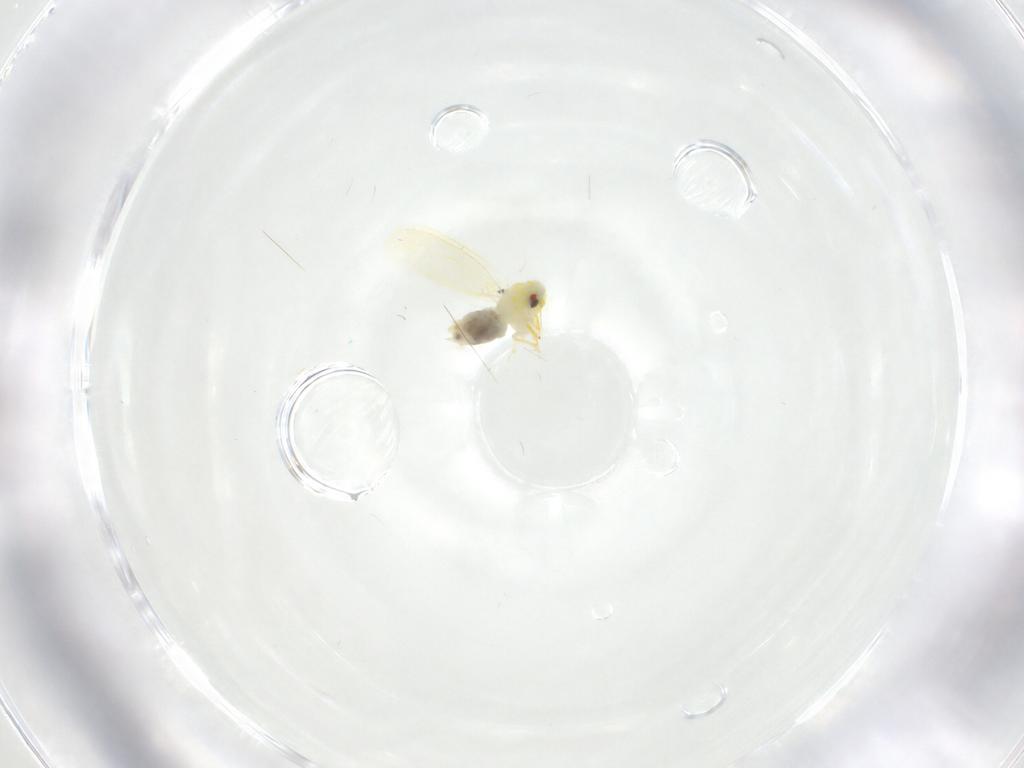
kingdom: Animalia
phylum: Arthropoda
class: Insecta
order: Hemiptera
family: Aleyrodidae
